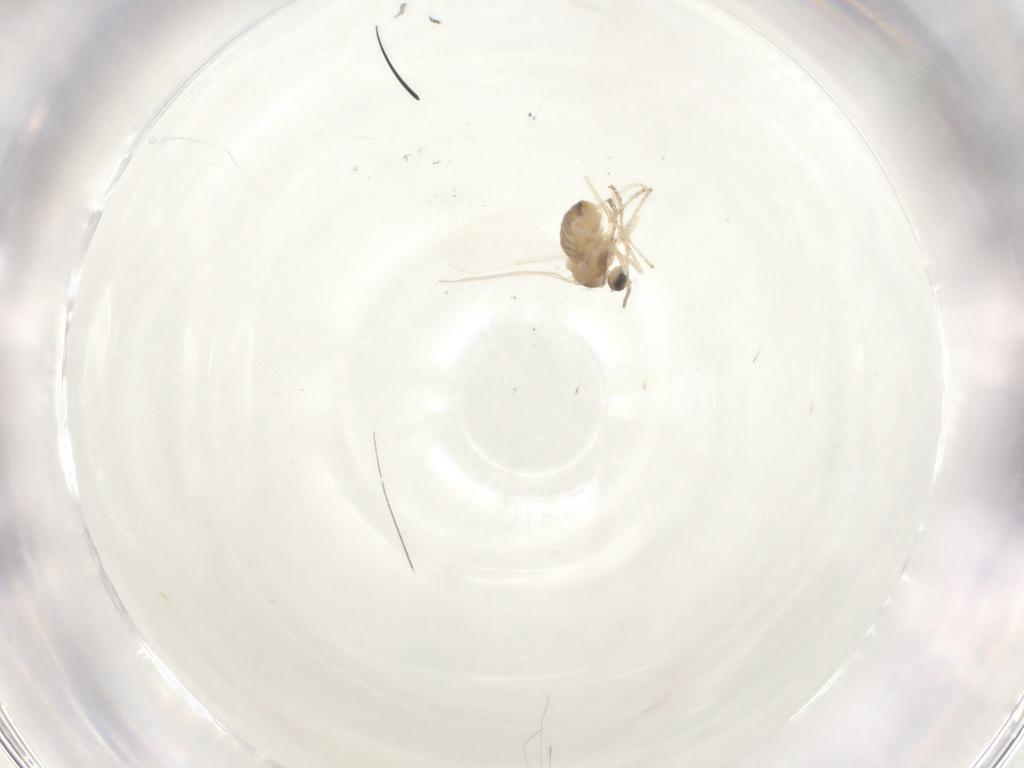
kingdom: Animalia
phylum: Arthropoda
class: Insecta
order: Diptera
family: Cecidomyiidae
